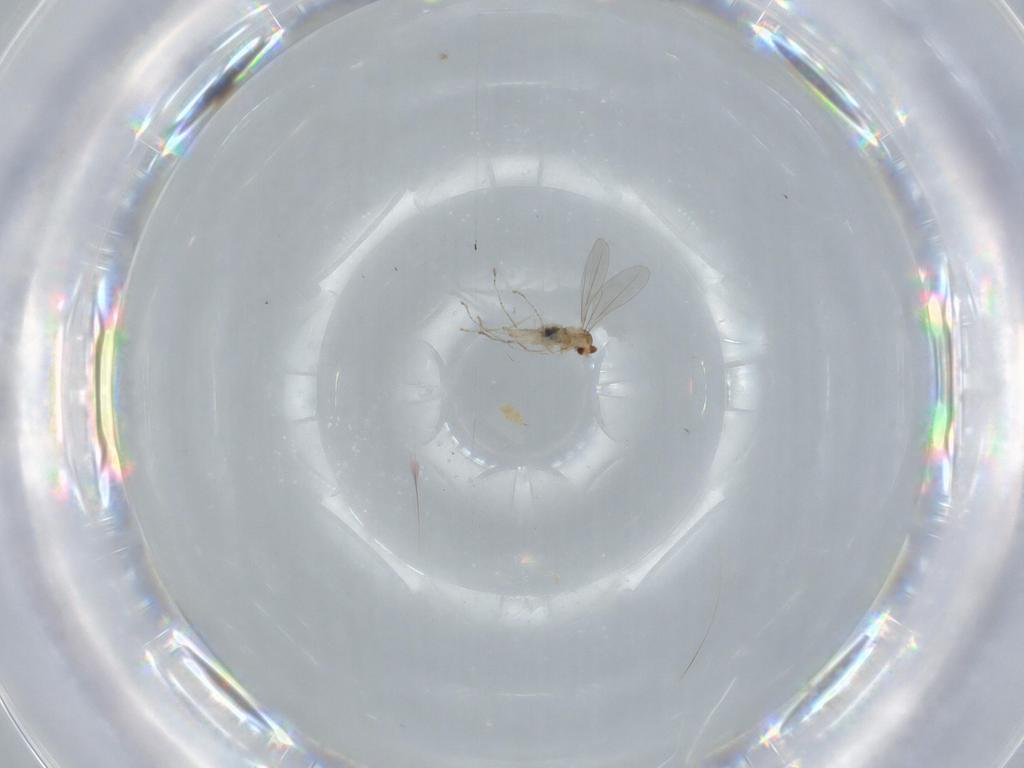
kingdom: Animalia
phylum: Arthropoda
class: Insecta
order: Diptera
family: Cecidomyiidae
